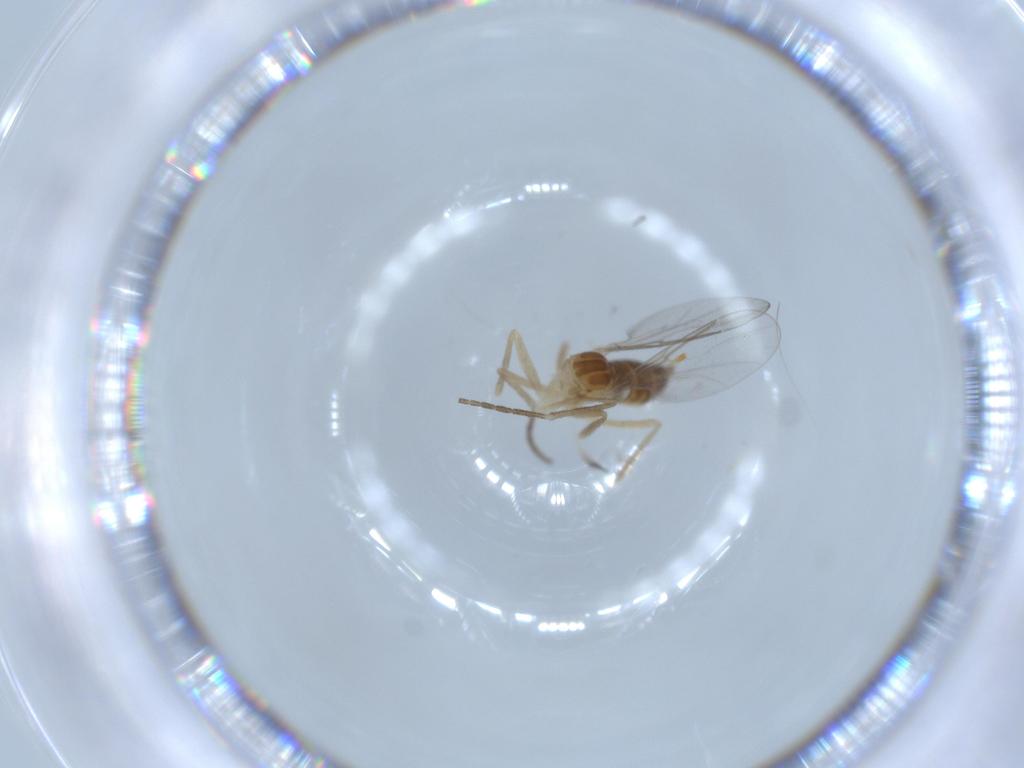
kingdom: Animalia
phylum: Arthropoda
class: Insecta
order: Diptera
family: Cecidomyiidae
